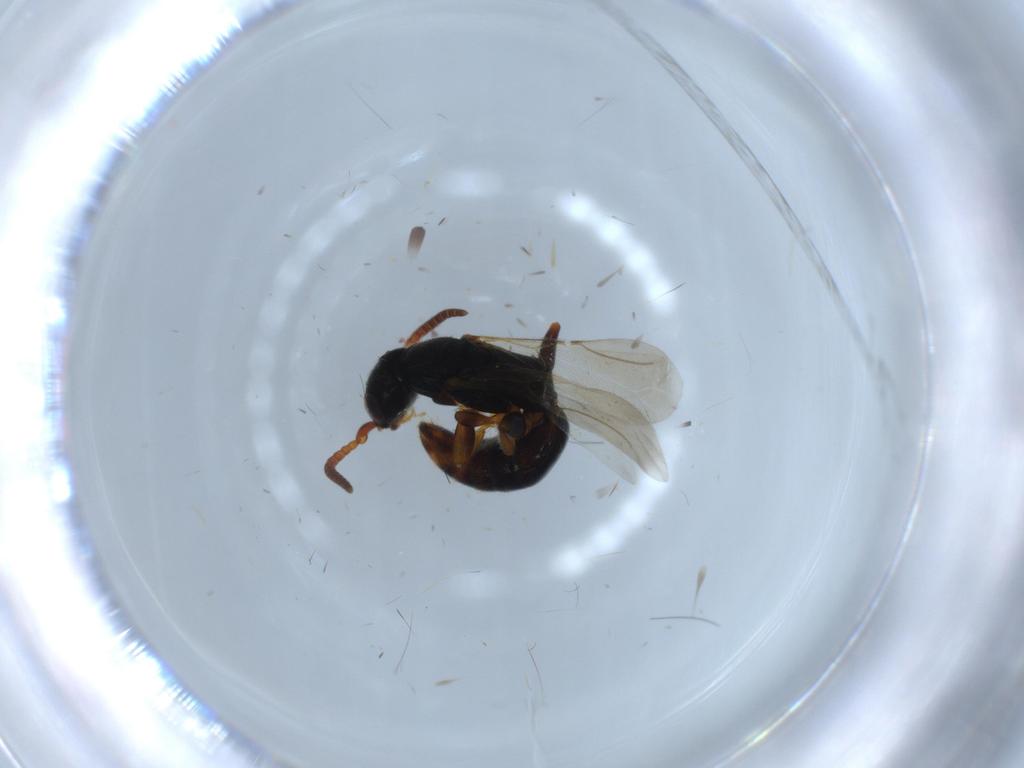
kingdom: Animalia
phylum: Arthropoda
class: Insecta
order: Hymenoptera
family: Bethylidae
